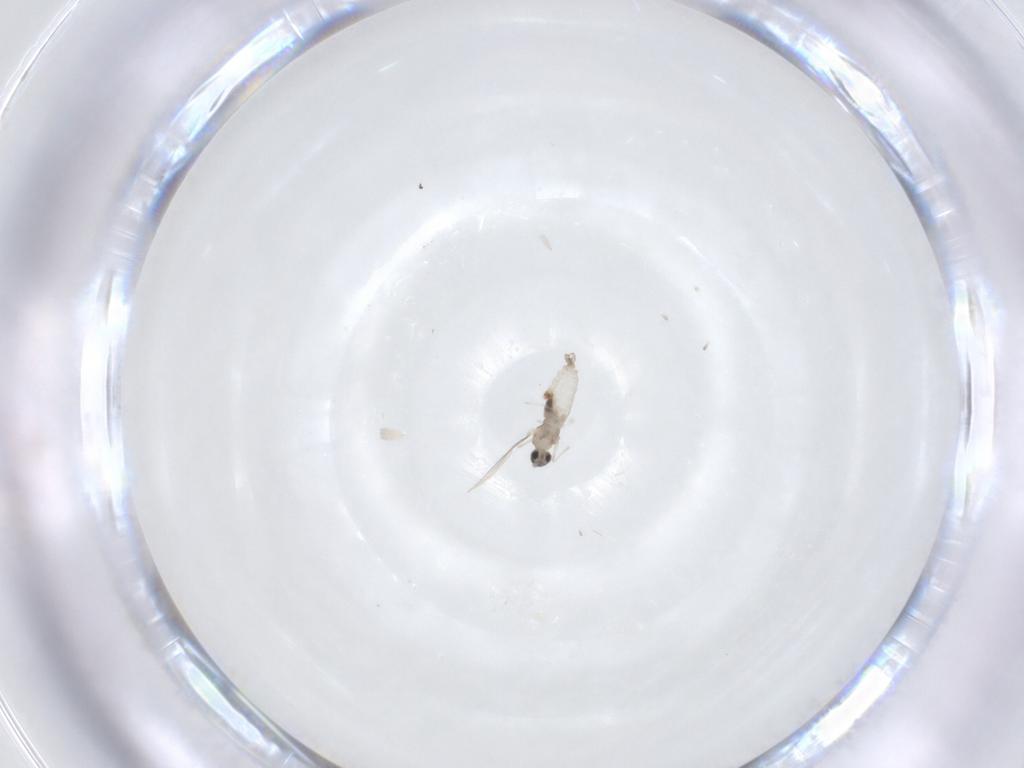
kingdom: Animalia
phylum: Arthropoda
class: Insecta
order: Diptera
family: Cecidomyiidae
